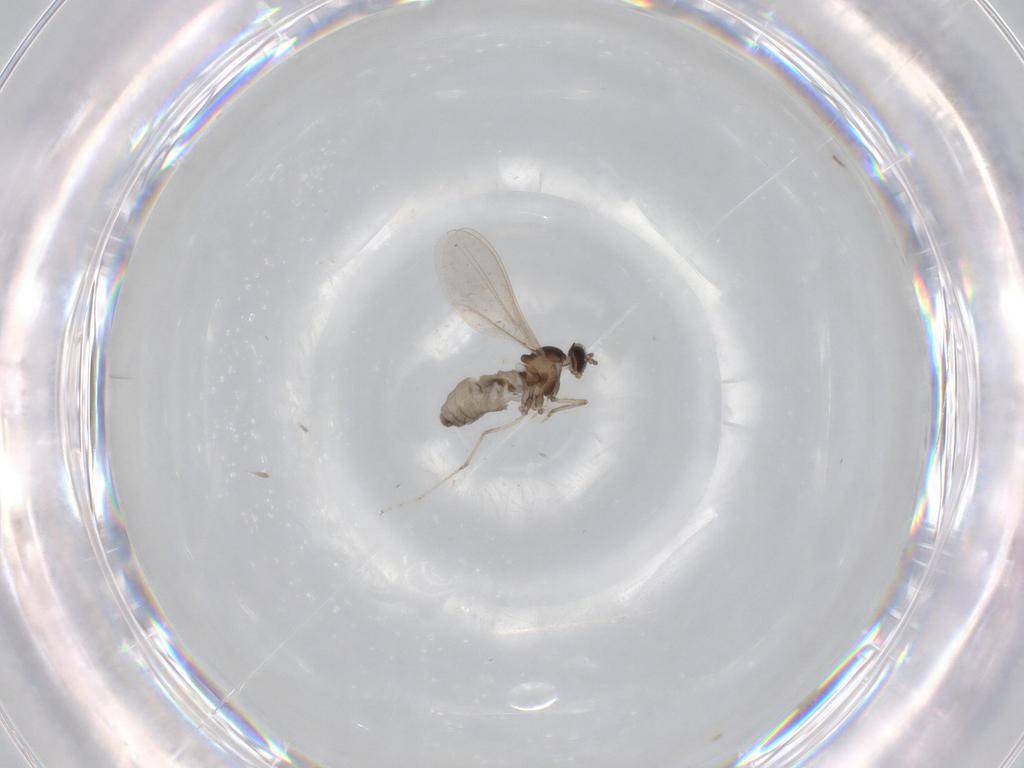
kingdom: Animalia
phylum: Arthropoda
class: Insecta
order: Diptera
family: Cecidomyiidae
